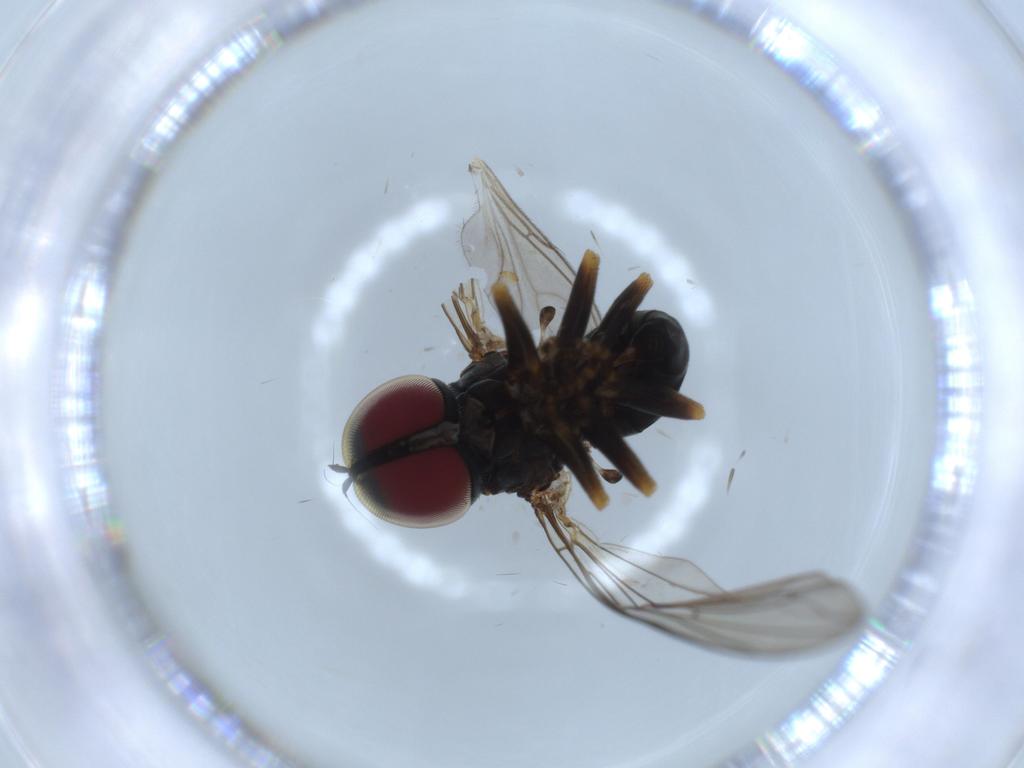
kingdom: Animalia
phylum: Arthropoda
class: Insecta
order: Diptera
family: Pipunculidae
